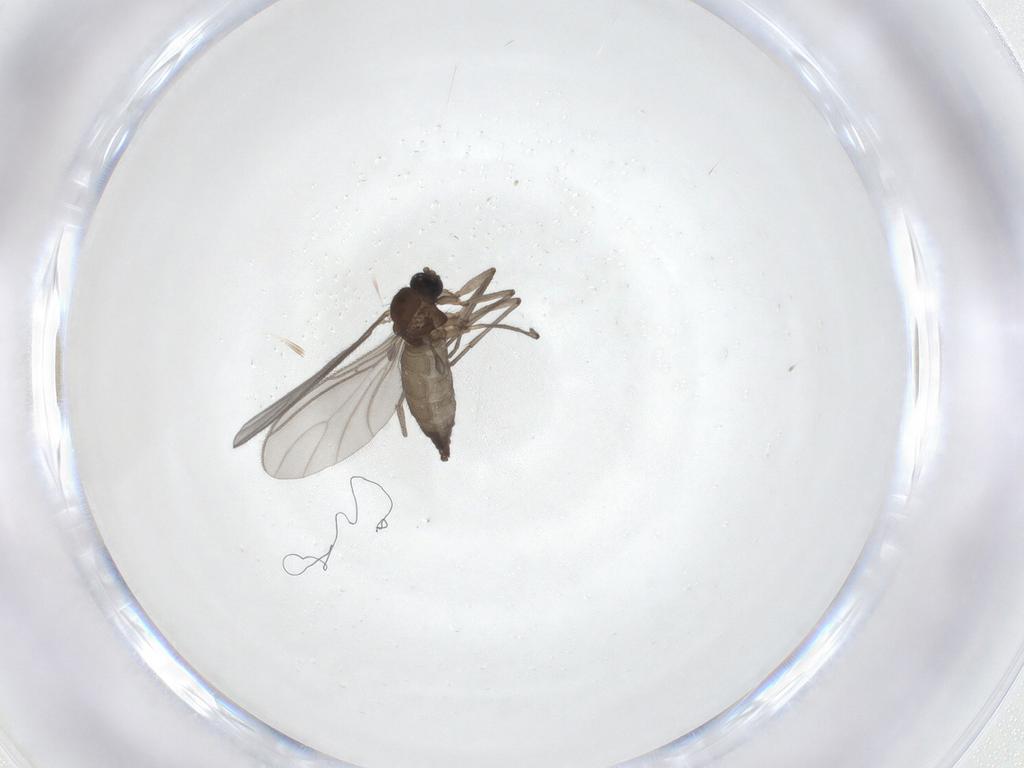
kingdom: Animalia
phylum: Arthropoda
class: Insecta
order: Diptera
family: Sciaridae
